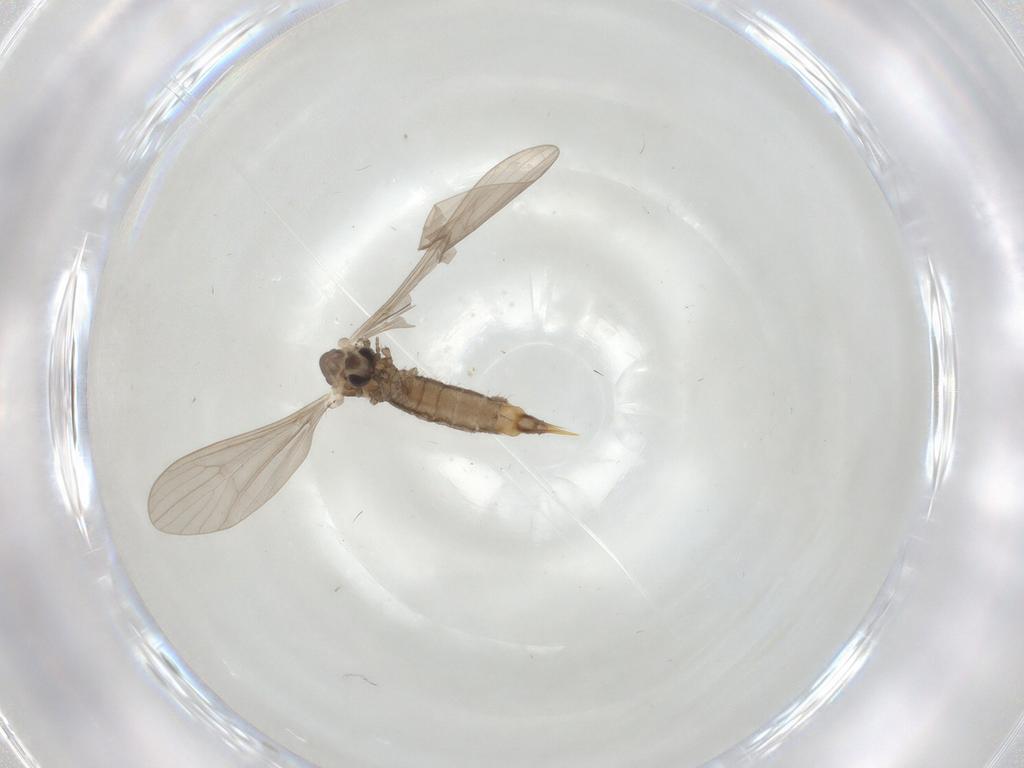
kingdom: Animalia
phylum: Arthropoda
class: Insecta
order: Diptera
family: Limoniidae
